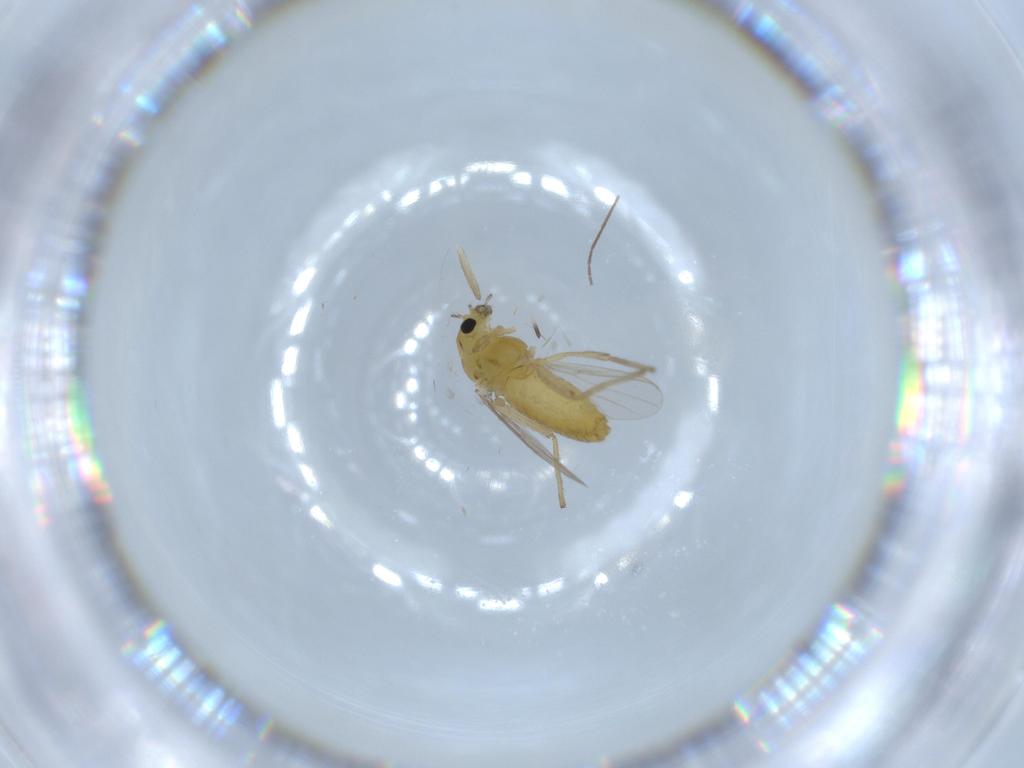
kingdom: Animalia
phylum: Arthropoda
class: Insecta
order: Diptera
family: Chironomidae
